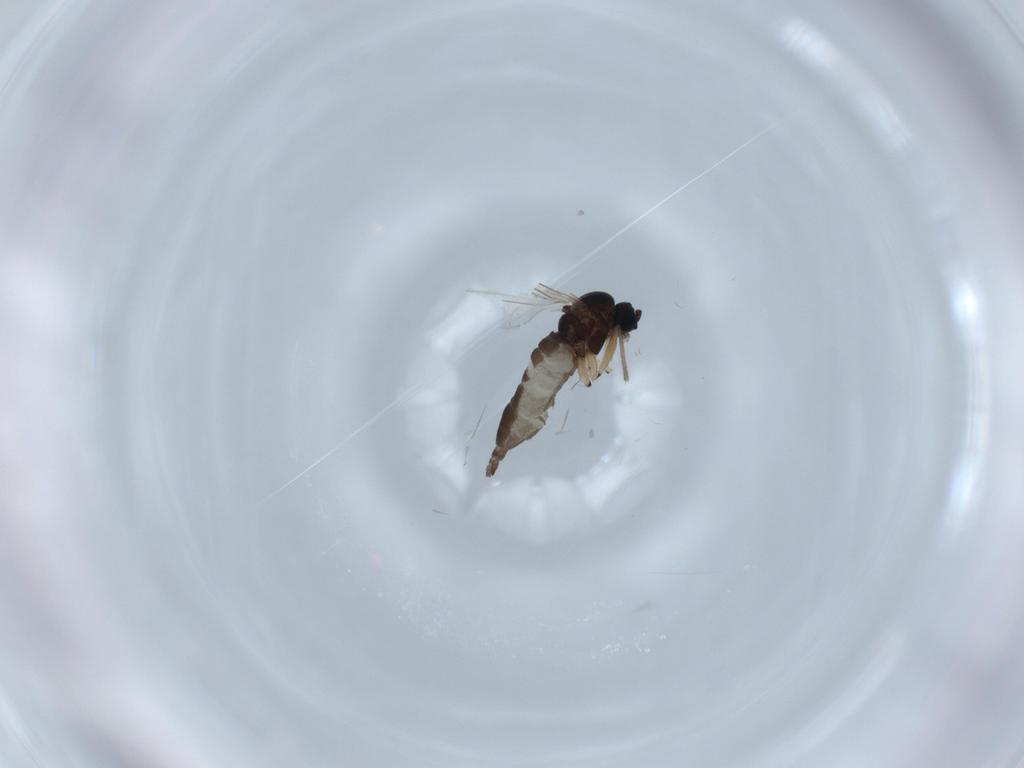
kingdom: Animalia
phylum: Arthropoda
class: Insecta
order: Diptera
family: Sciaridae
